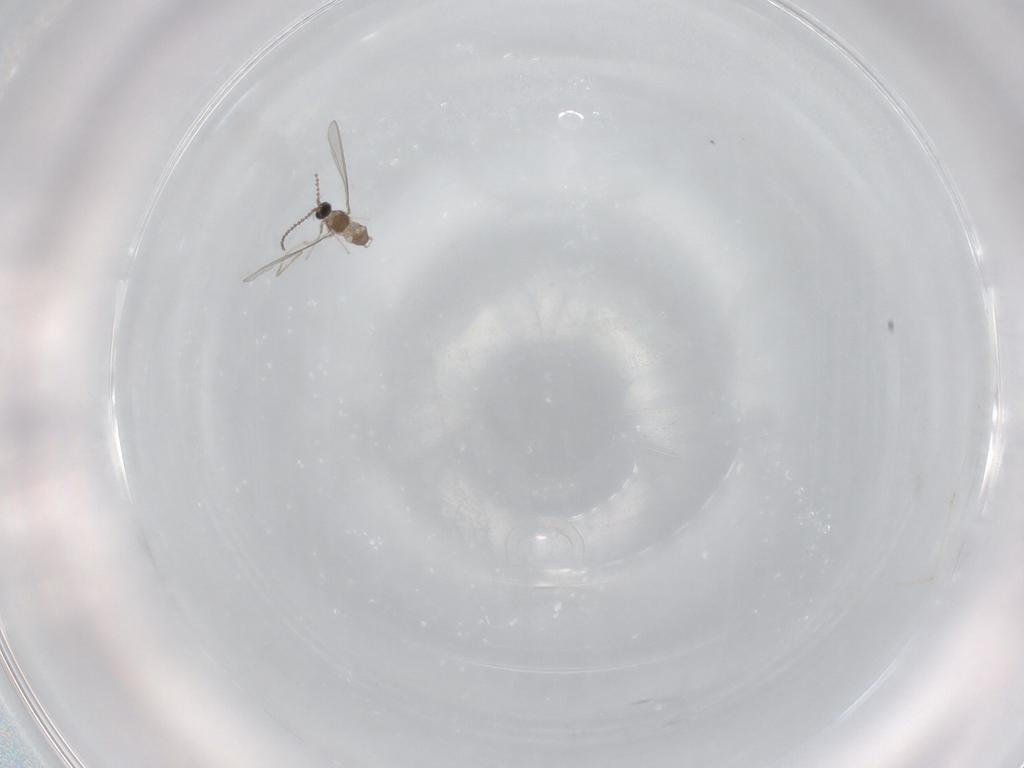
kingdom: Animalia
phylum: Arthropoda
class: Insecta
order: Diptera
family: Cecidomyiidae
